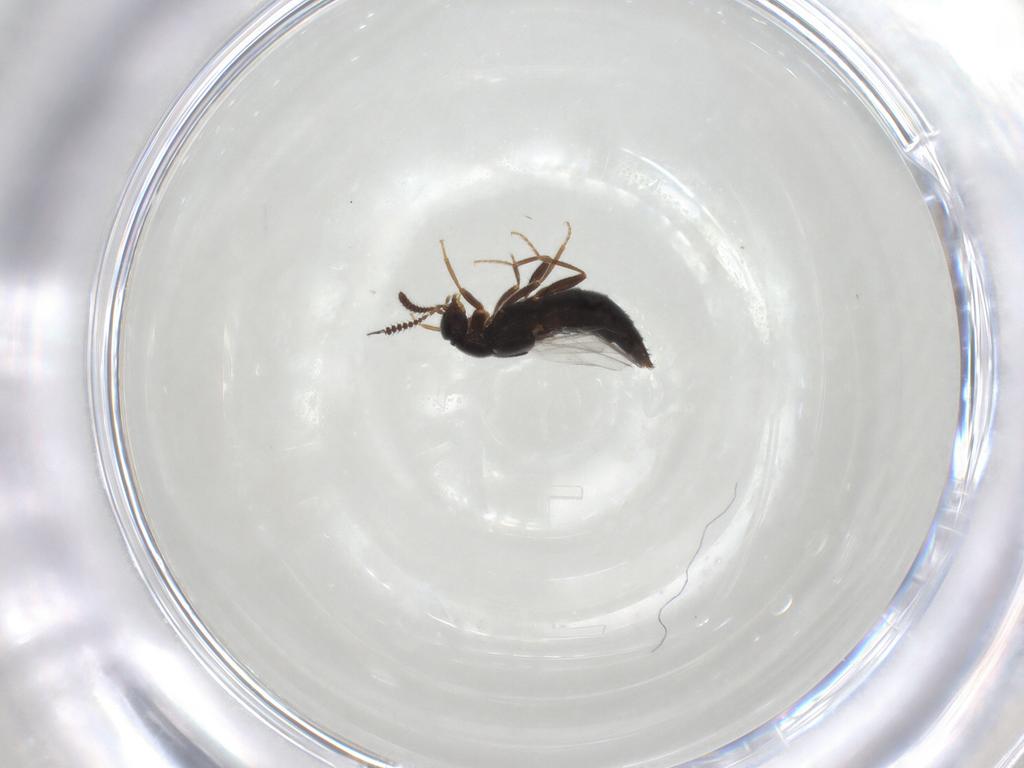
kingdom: Animalia
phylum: Arthropoda
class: Insecta
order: Coleoptera
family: Staphylinidae
